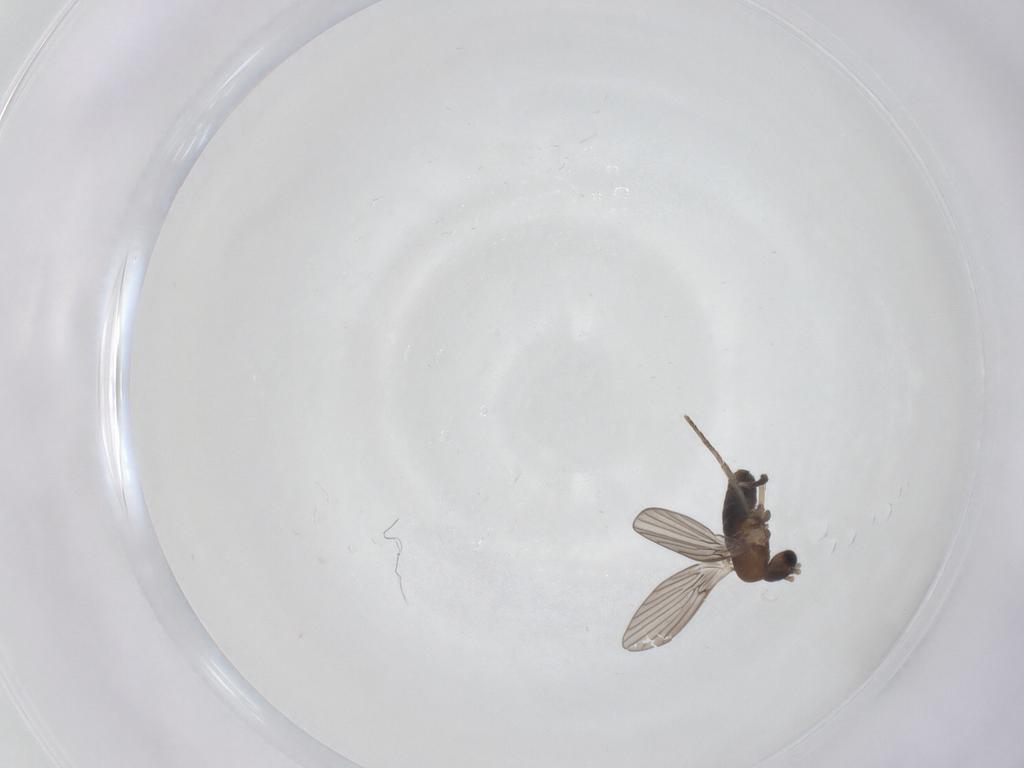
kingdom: Animalia
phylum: Arthropoda
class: Insecta
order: Diptera
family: Psychodidae
